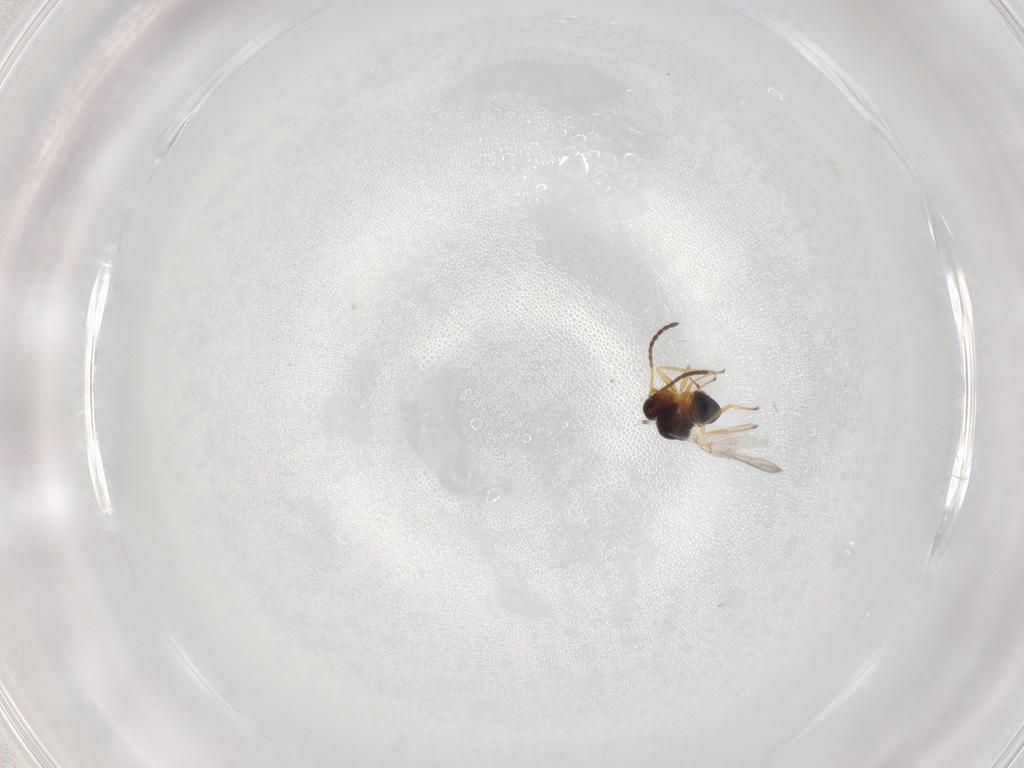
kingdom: Animalia
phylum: Arthropoda
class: Insecta
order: Hymenoptera
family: Figitidae
